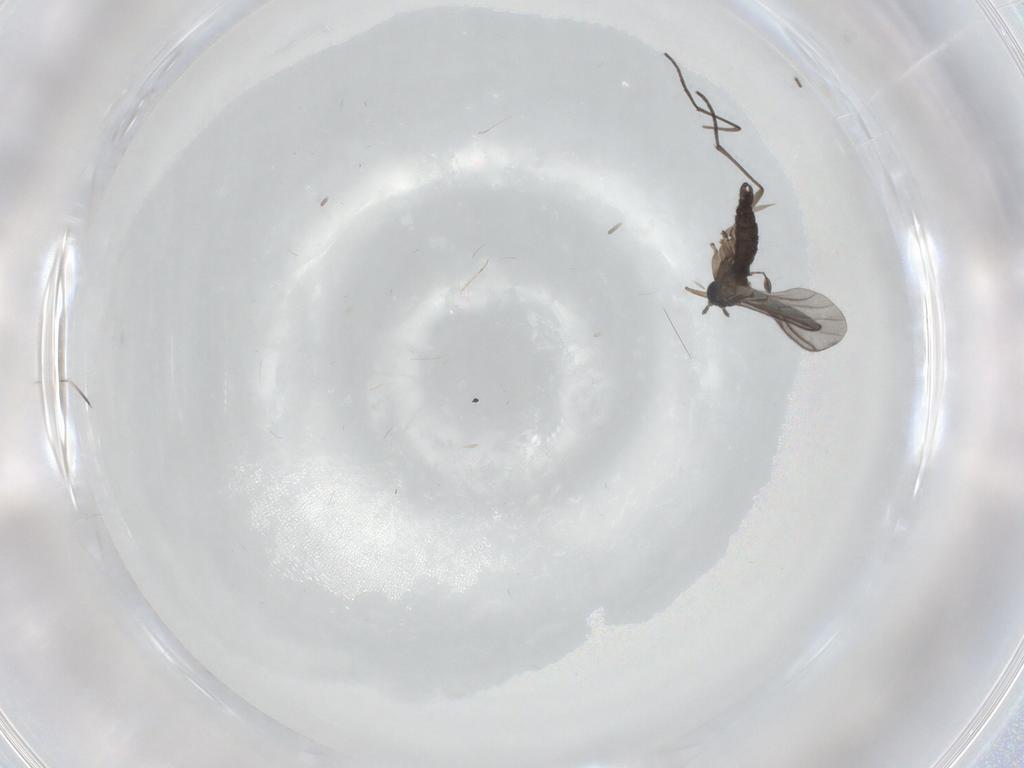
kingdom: Animalia
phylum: Arthropoda
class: Insecta
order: Diptera
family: Sciaridae
